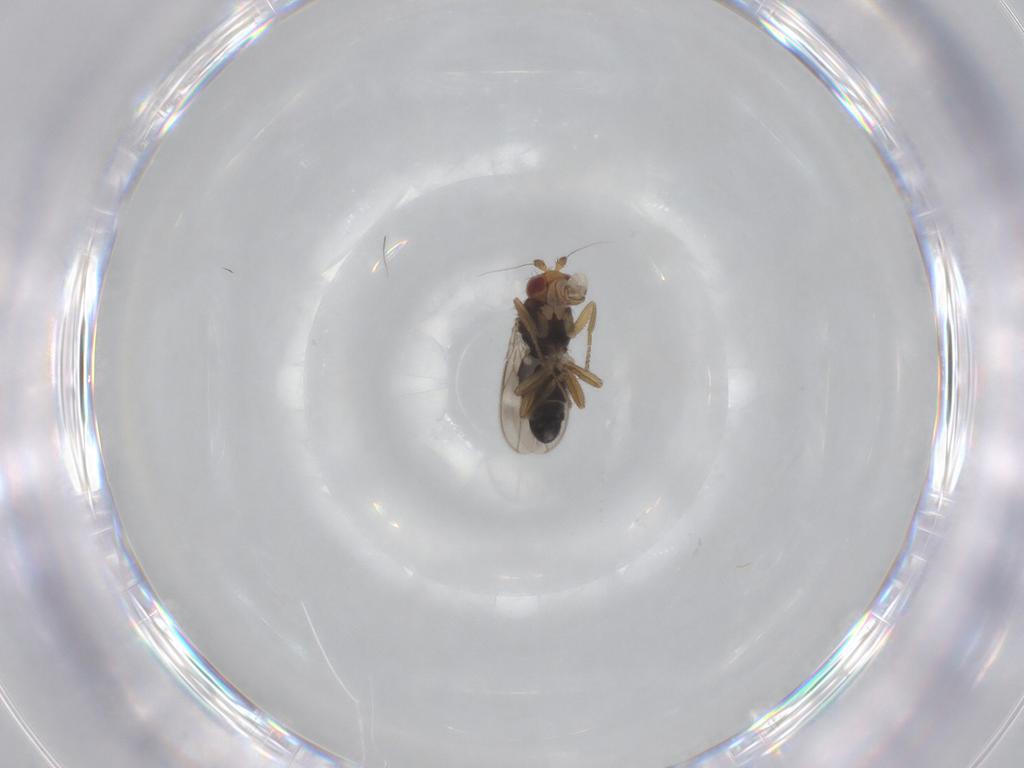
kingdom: Animalia
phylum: Arthropoda
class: Insecta
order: Diptera
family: Sphaeroceridae
